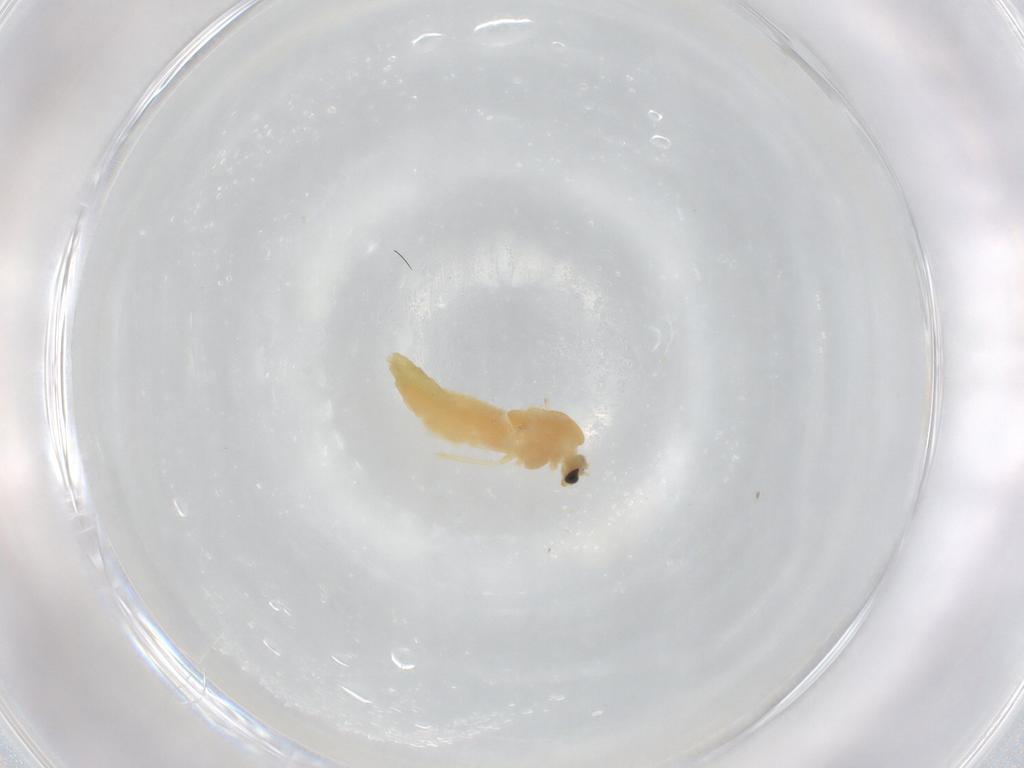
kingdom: Animalia
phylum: Arthropoda
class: Insecta
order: Diptera
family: Chironomidae
